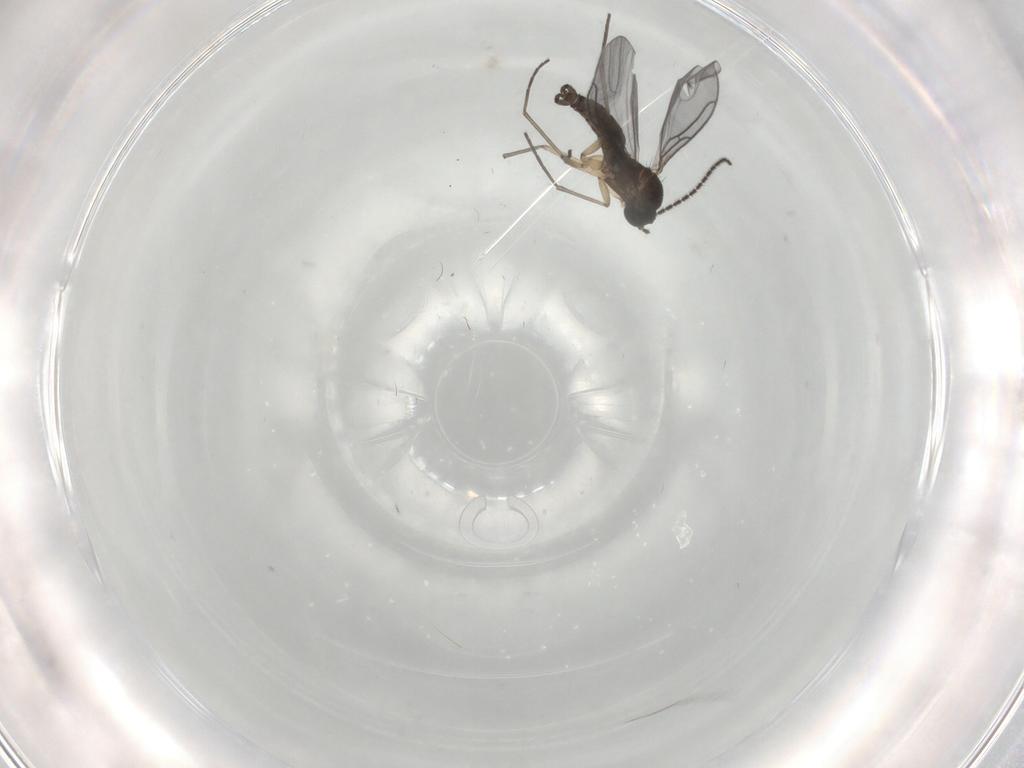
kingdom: Animalia
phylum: Arthropoda
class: Insecta
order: Diptera
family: Sciaridae
